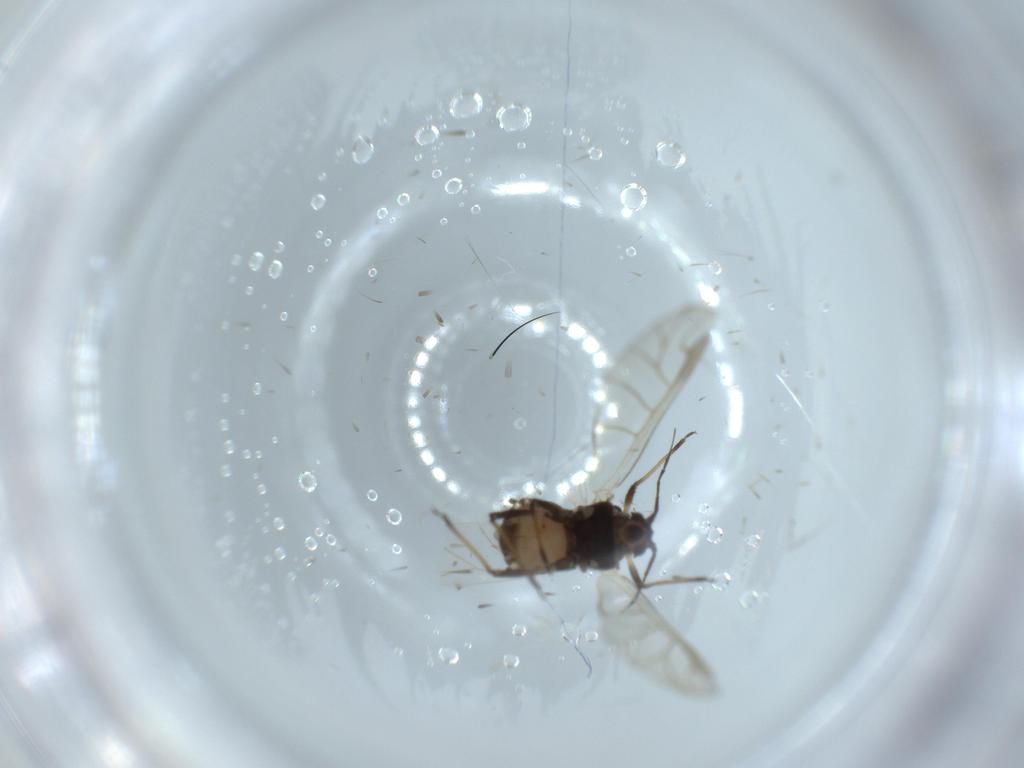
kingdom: Animalia
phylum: Arthropoda
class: Insecta
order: Hemiptera
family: Aphididae
